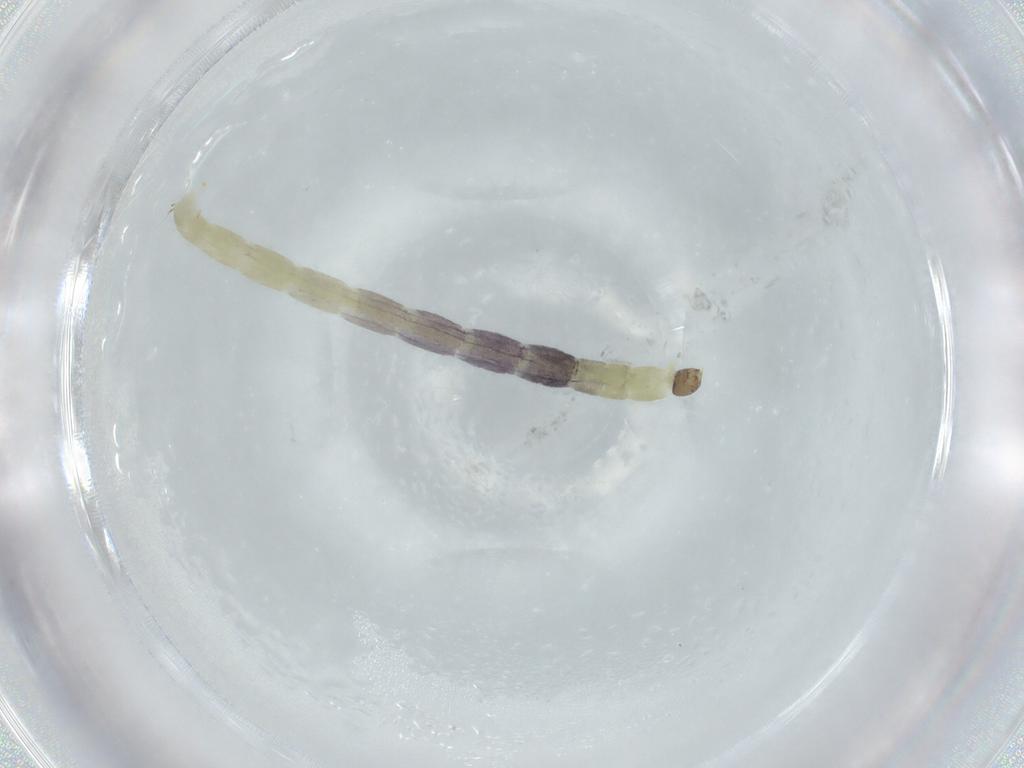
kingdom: Animalia
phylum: Arthropoda
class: Insecta
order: Diptera
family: Chironomidae
